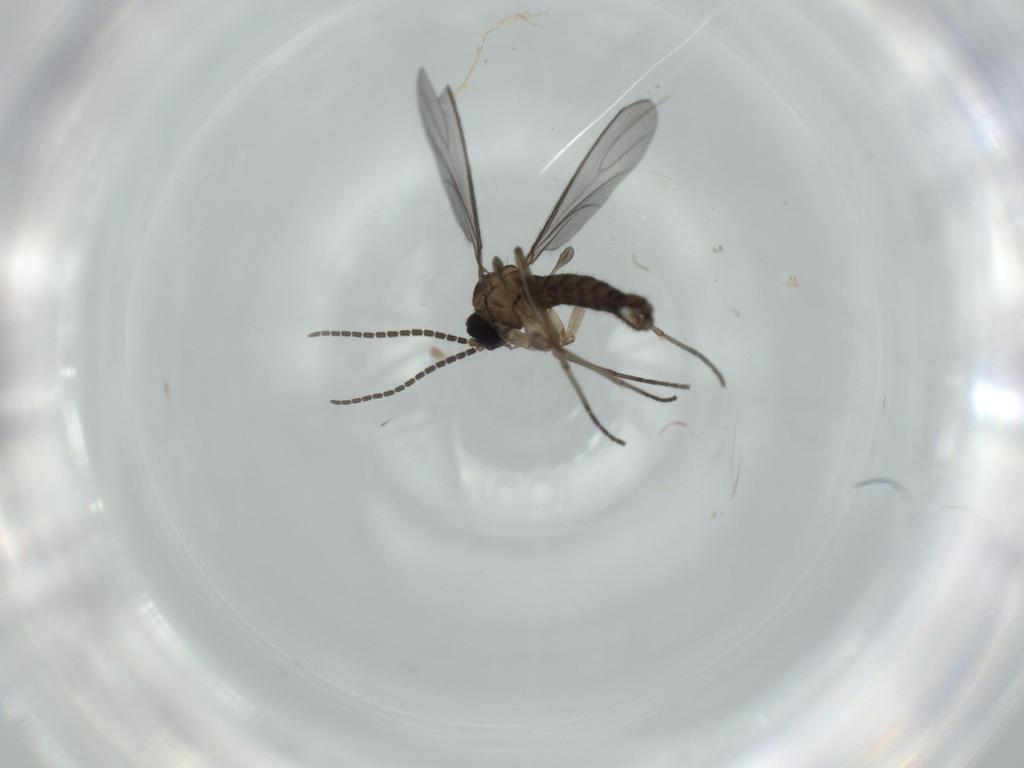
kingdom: Animalia
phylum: Arthropoda
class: Insecta
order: Diptera
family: Sciaridae
